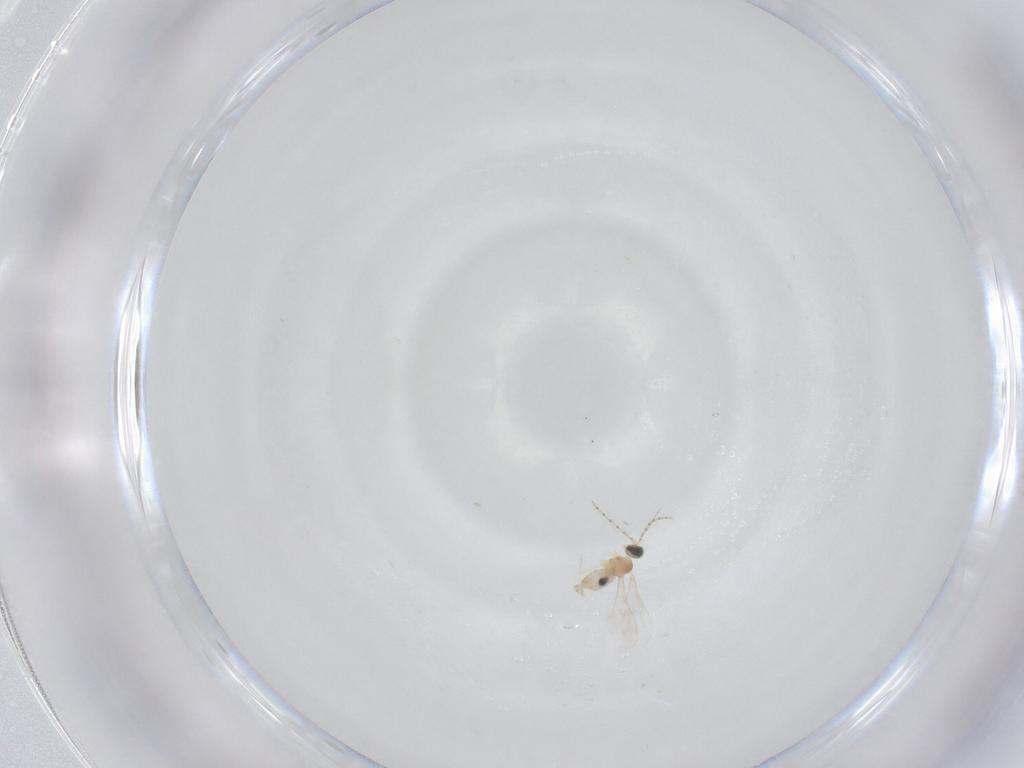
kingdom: Animalia
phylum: Arthropoda
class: Insecta
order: Diptera
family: Cecidomyiidae
